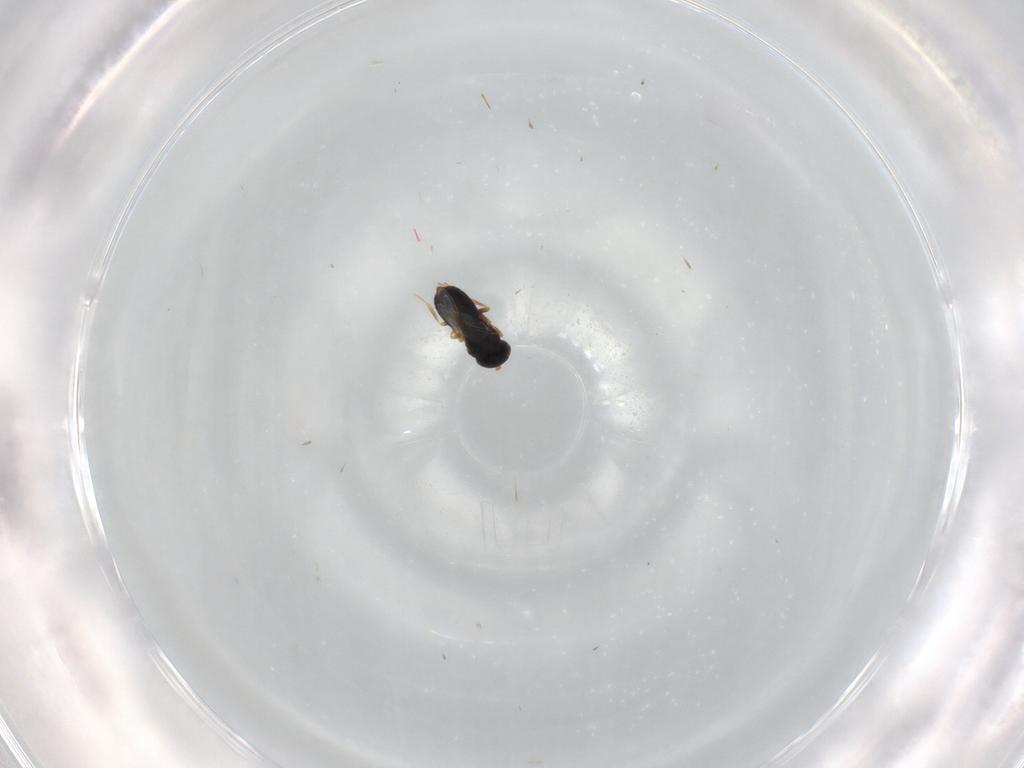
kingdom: Animalia
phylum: Arthropoda
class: Insecta
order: Hymenoptera
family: Scelionidae
